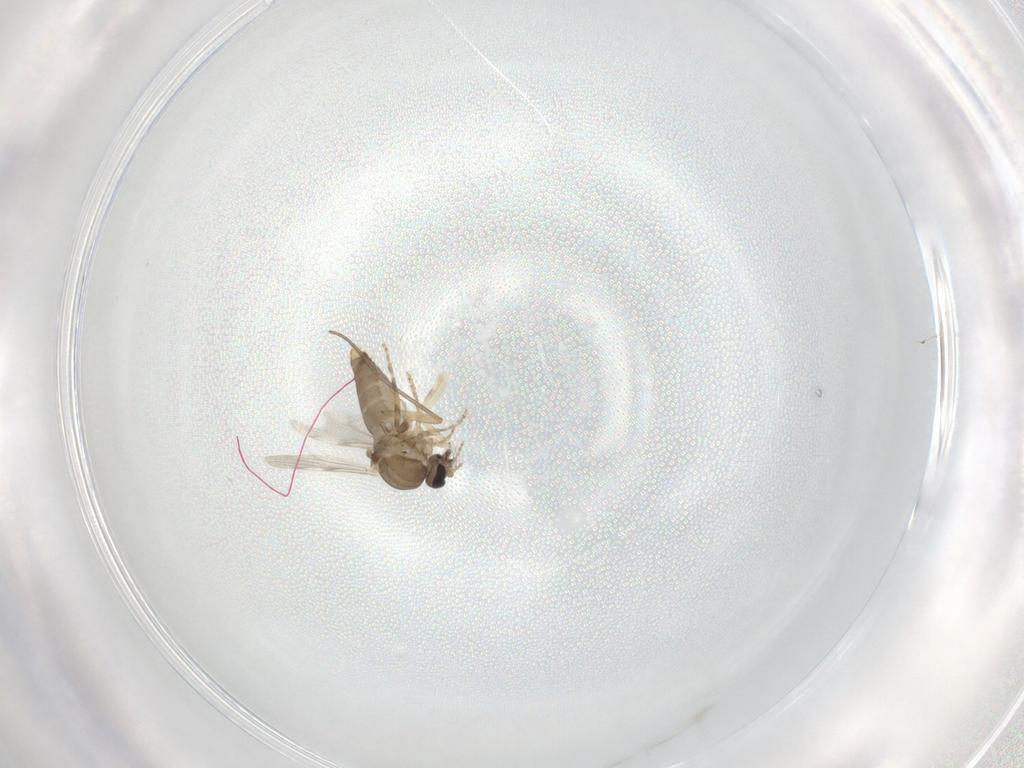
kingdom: Animalia
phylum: Arthropoda
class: Insecta
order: Diptera
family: Ceratopogonidae
